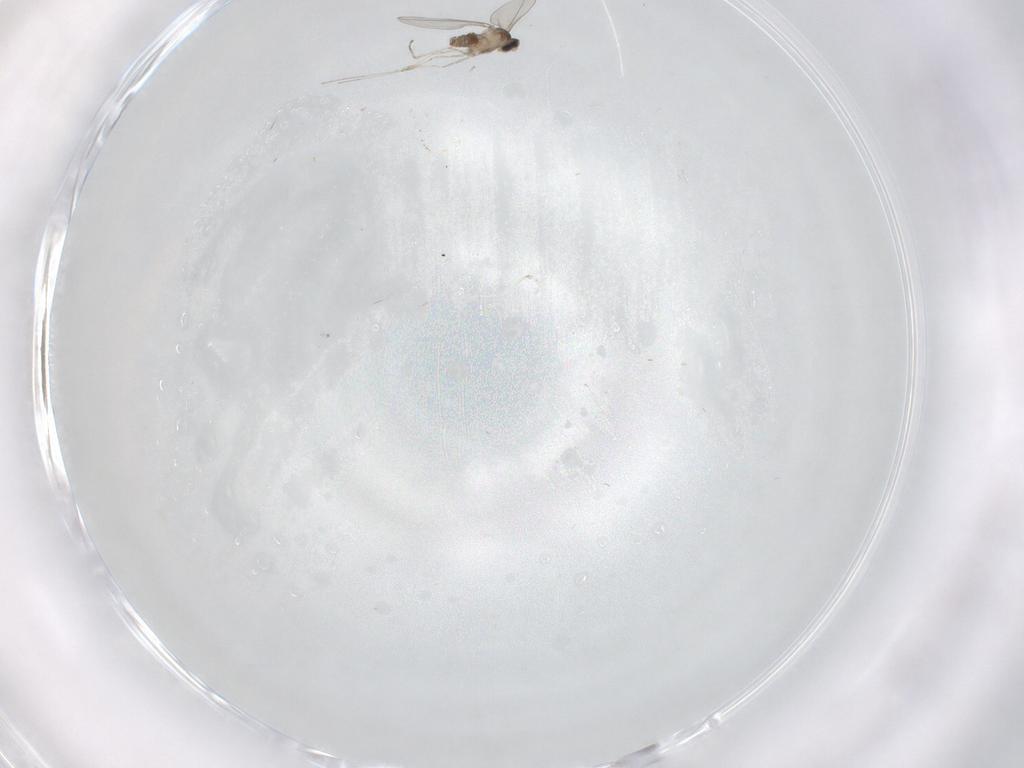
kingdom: Animalia
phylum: Arthropoda
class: Insecta
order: Diptera
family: Cecidomyiidae
